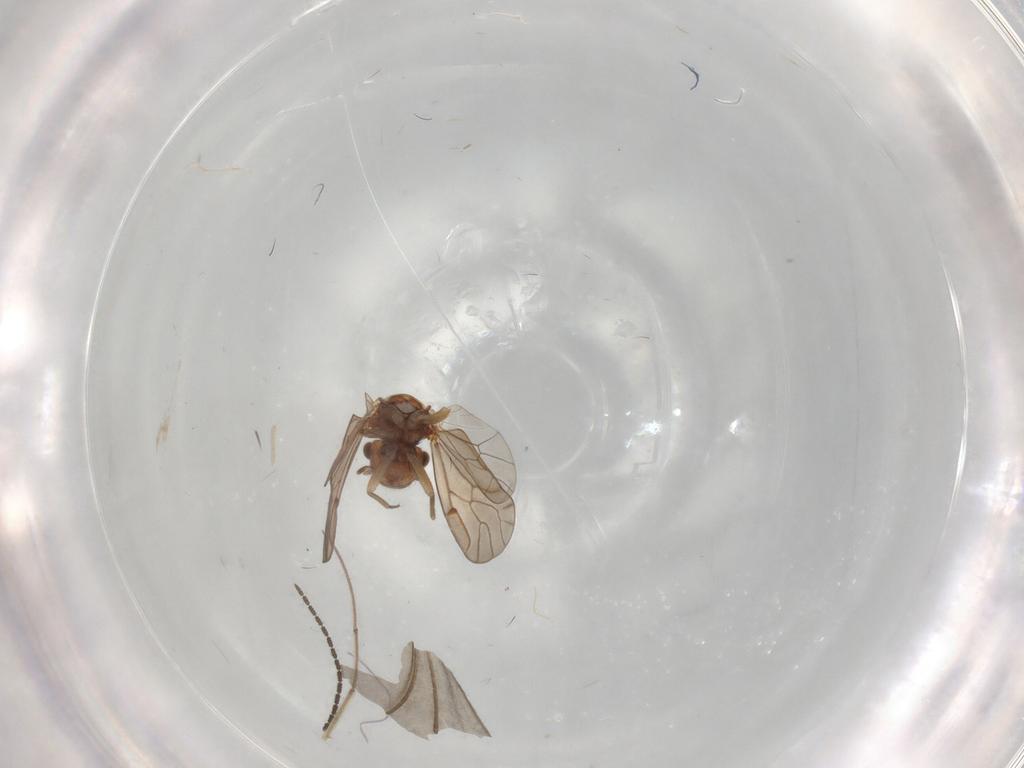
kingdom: Animalia
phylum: Arthropoda
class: Insecta
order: Psocodea
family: Ectopsocidae
